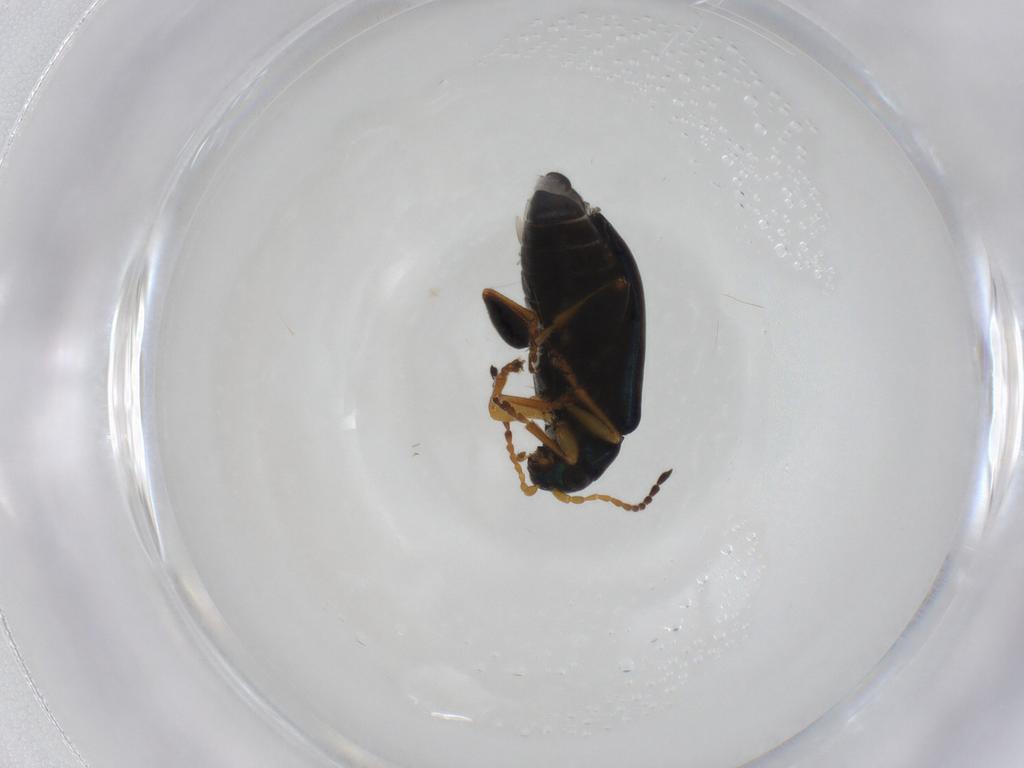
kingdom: Animalia
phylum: Arthropoda
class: Insecta
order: Coleoptera
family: Chrysomelidae
